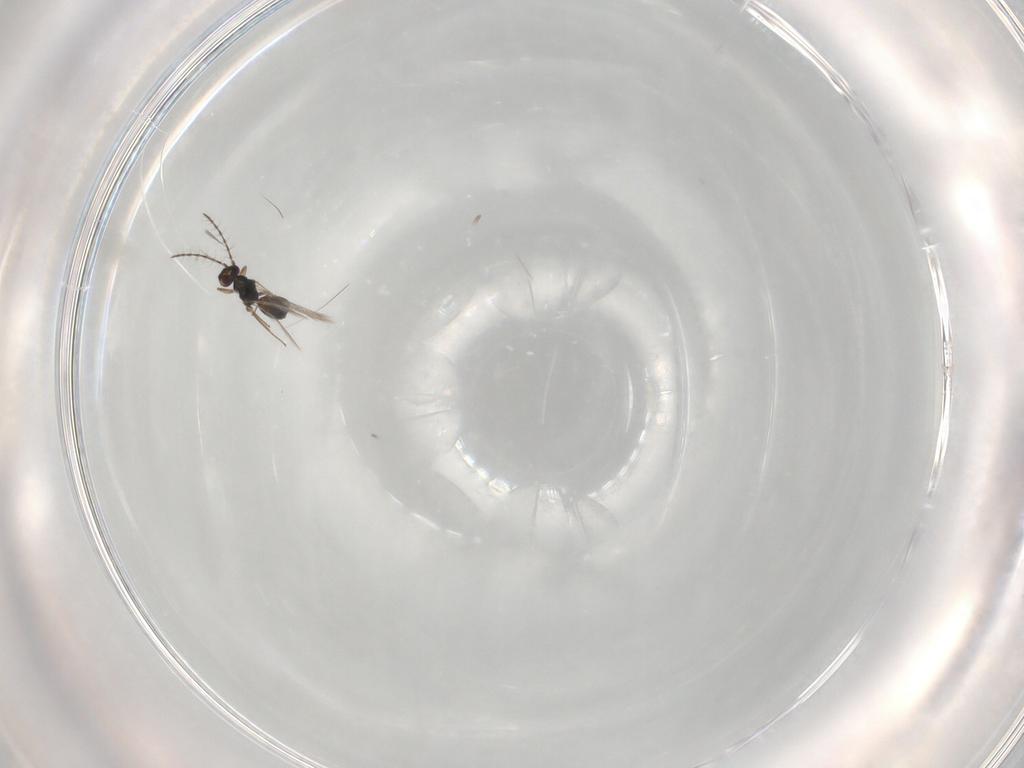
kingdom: Animalia
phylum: Arthropoda
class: Insecta
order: Hymenoptera
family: Pteromalidae
